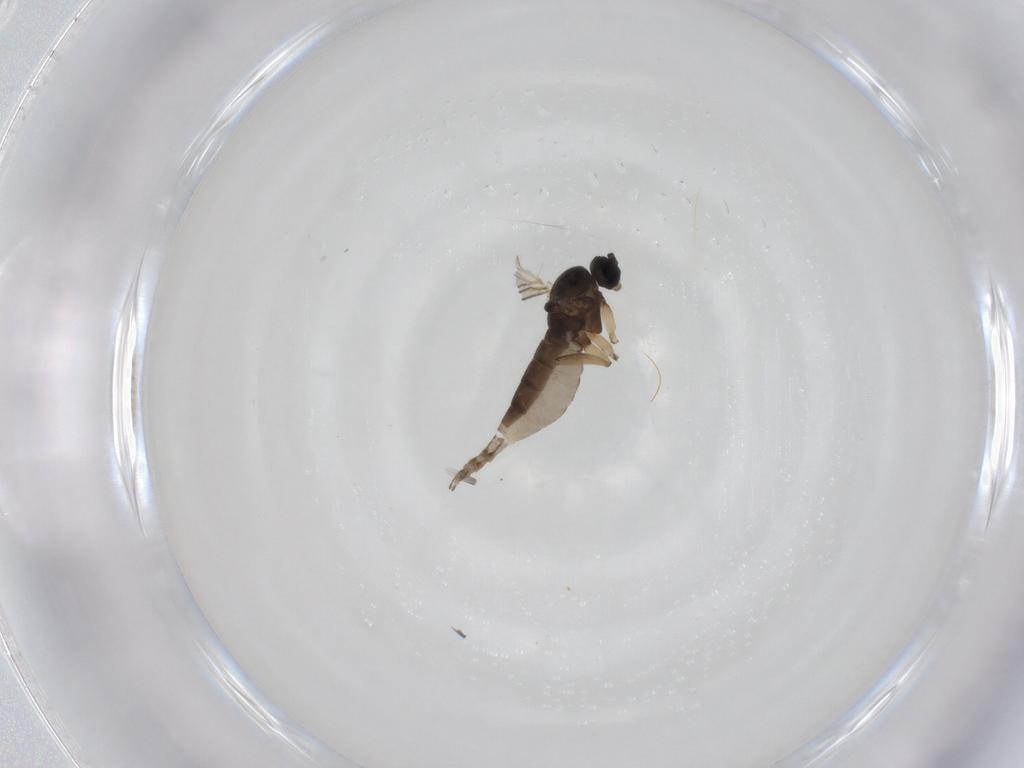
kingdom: Animalia
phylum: Arthropoda
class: Insecta
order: Diptera
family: Sciaridae
